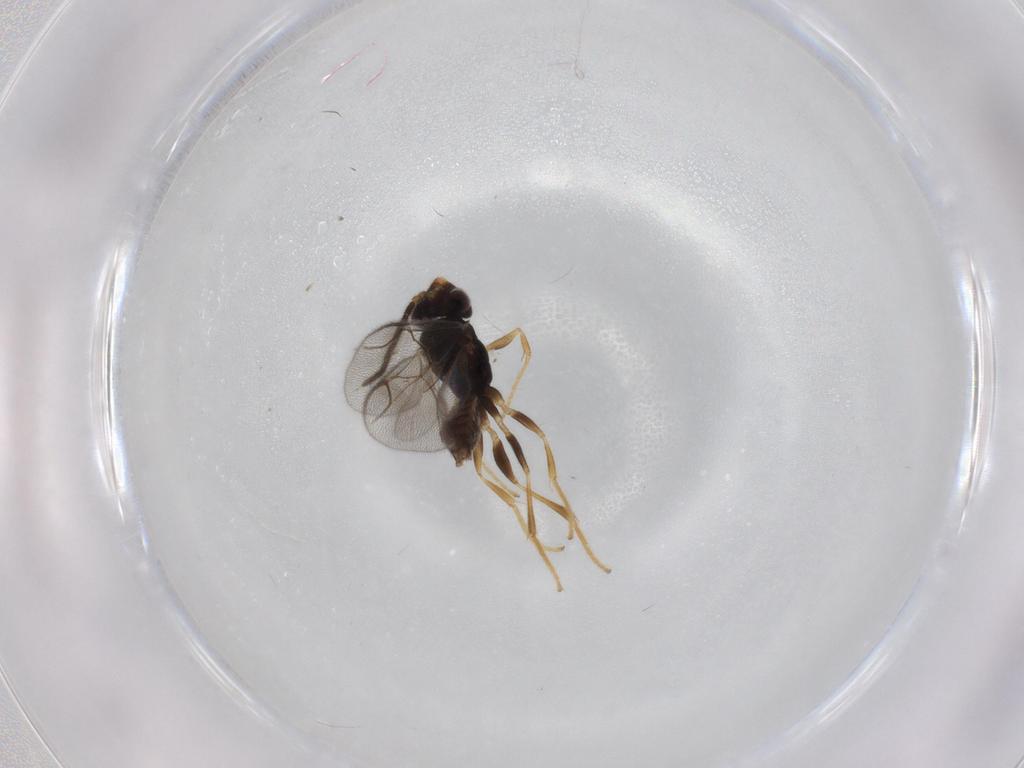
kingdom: Animalia
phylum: Arthropoda
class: Insecta
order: Hymenoptera
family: Dryinidae
